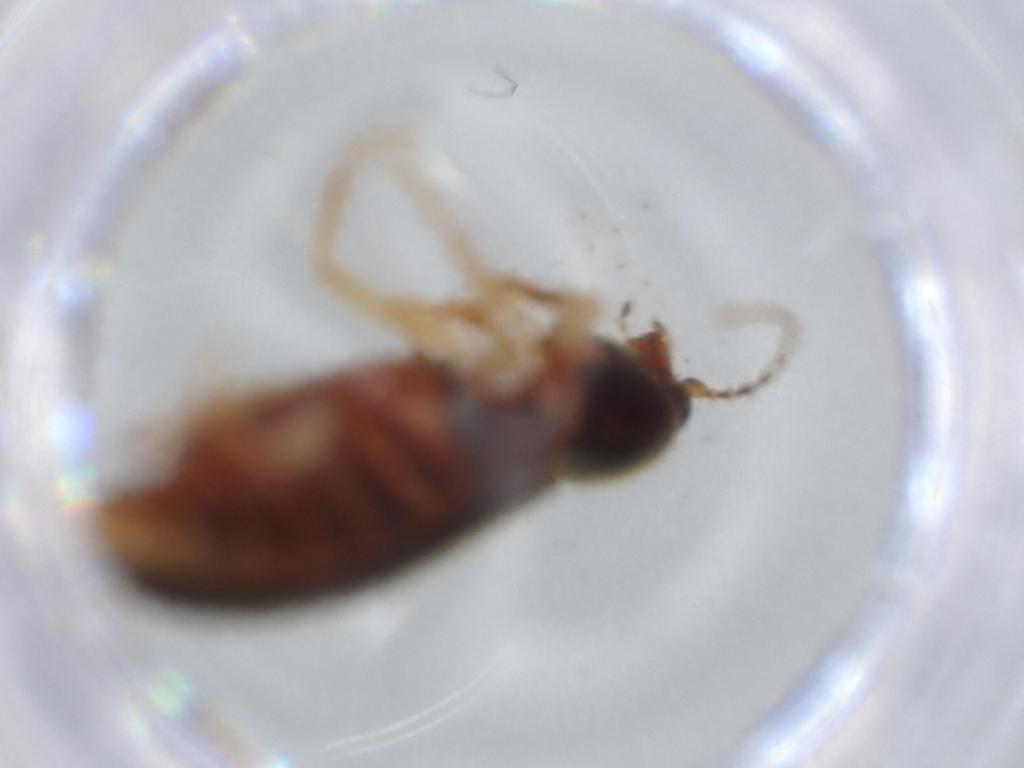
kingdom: Animalia
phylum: Arthropoda
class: Insecta
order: Coleoptera
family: Elateridae
